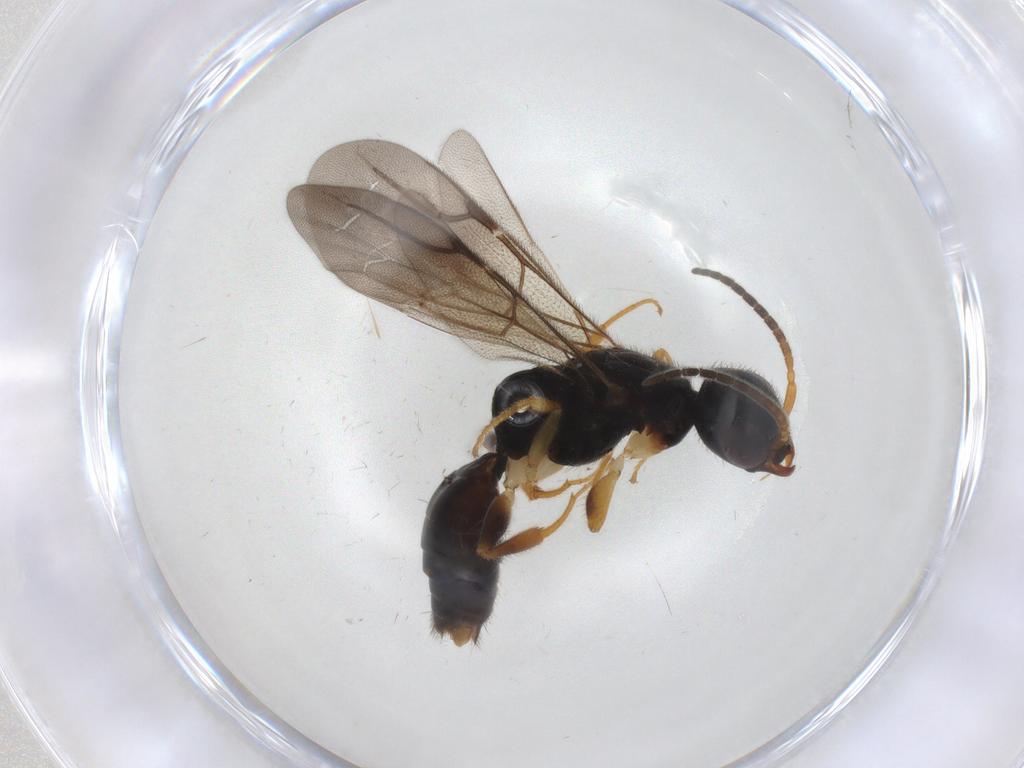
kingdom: Animalia
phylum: Arthropoda
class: Insecta
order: Hymenoptera
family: Bethylidae
